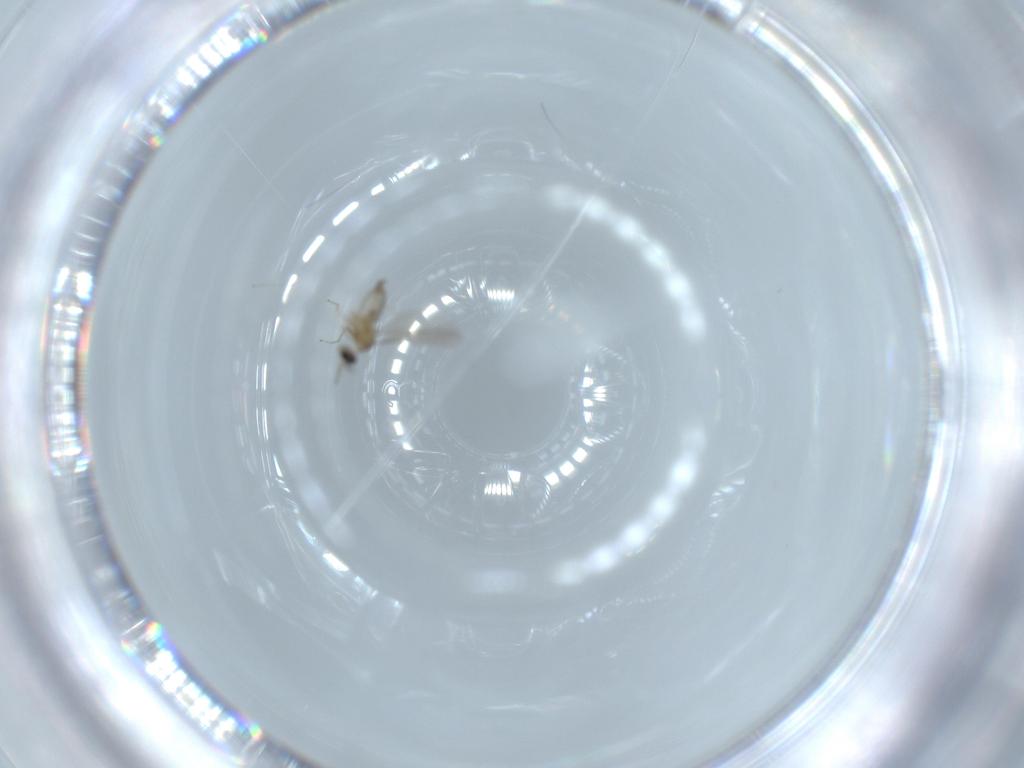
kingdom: Animalia
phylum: Arthropoda
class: Insecta
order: Diptera
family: Cecidomyiidae
